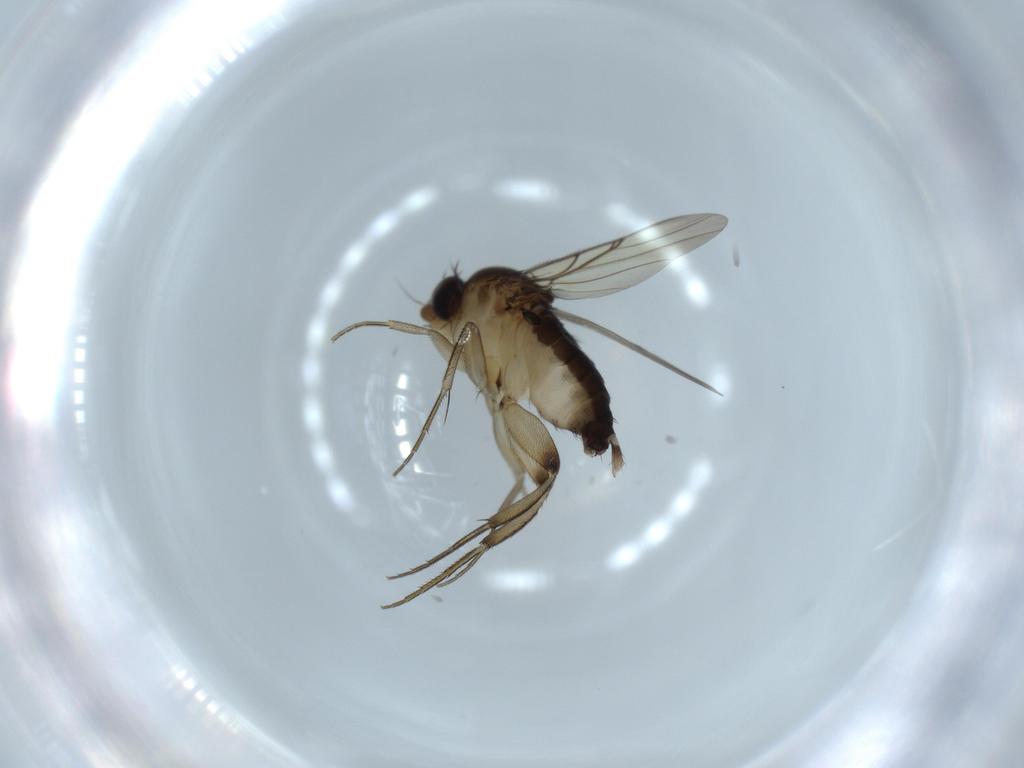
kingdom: Animalia
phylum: Arthropoda
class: Insecta
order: Diptera
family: Phoridae
